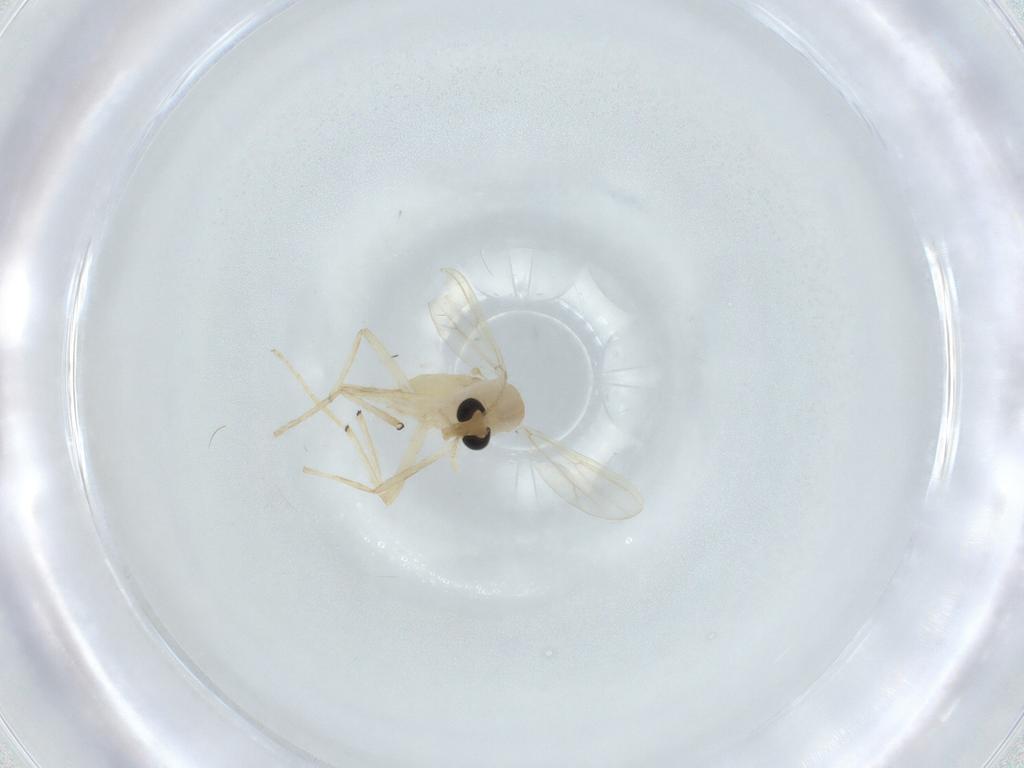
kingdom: Animalia
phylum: Arthropoda
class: Insecta
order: Diptera
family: Chironomidae
